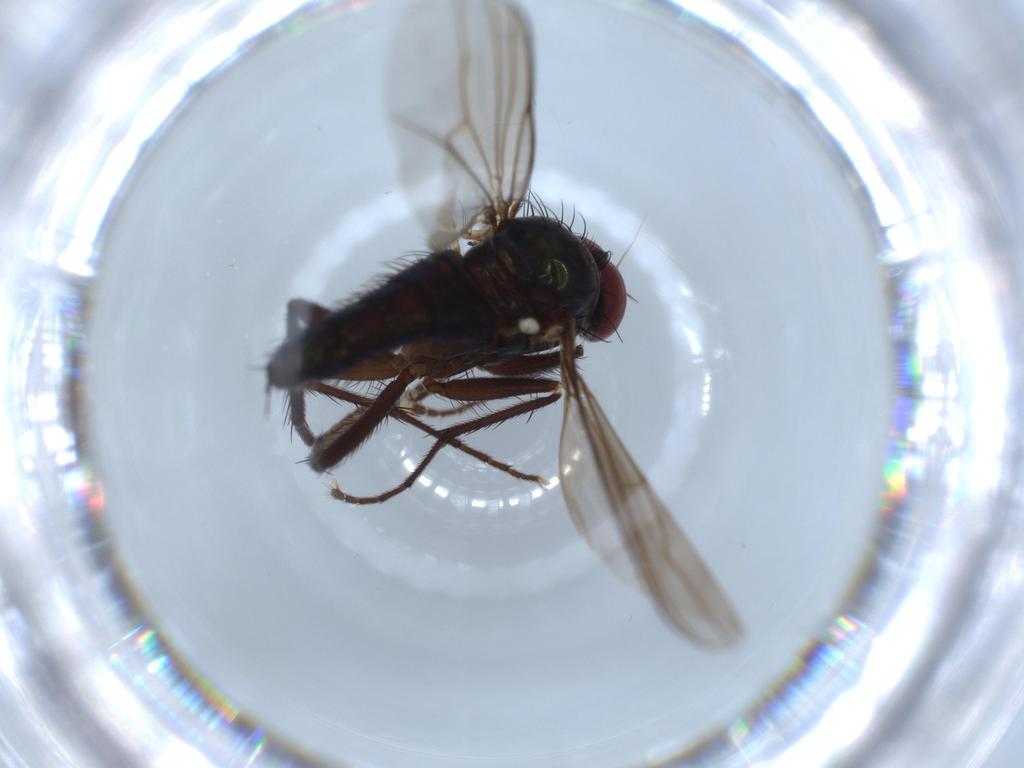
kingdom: Animalia
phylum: Arthropoda
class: Insecta
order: Diptera
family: Dolichopodidae
